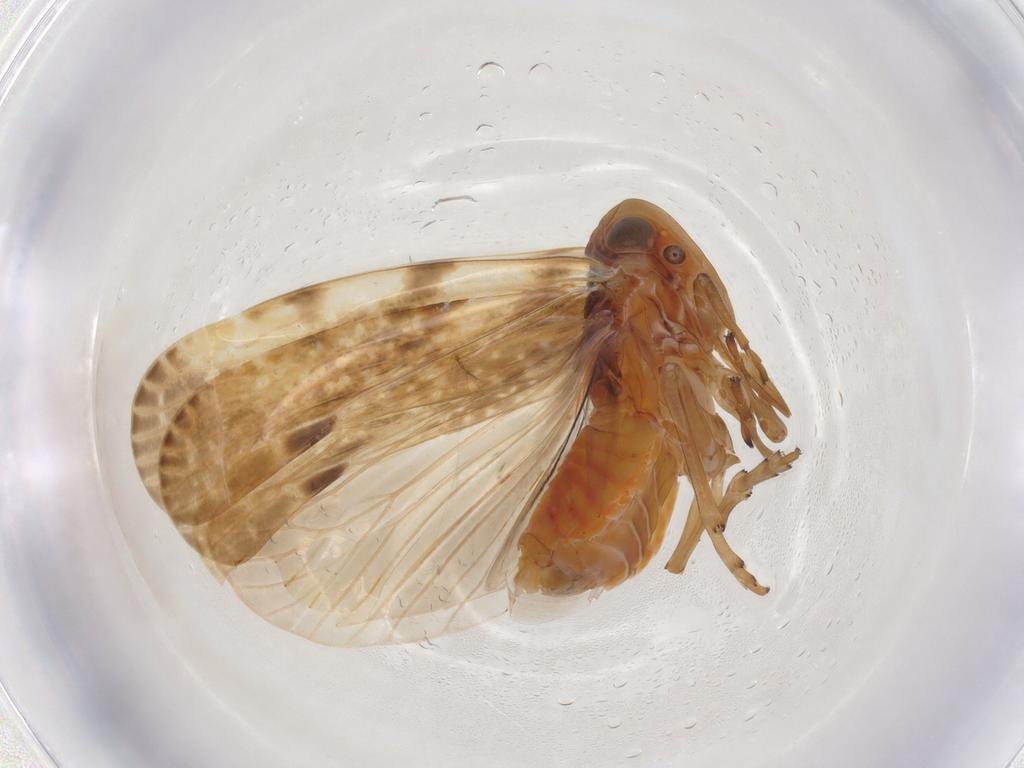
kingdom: Animalia
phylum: Arthropoda
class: Insecta
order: Hemiptera
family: Achilidae
